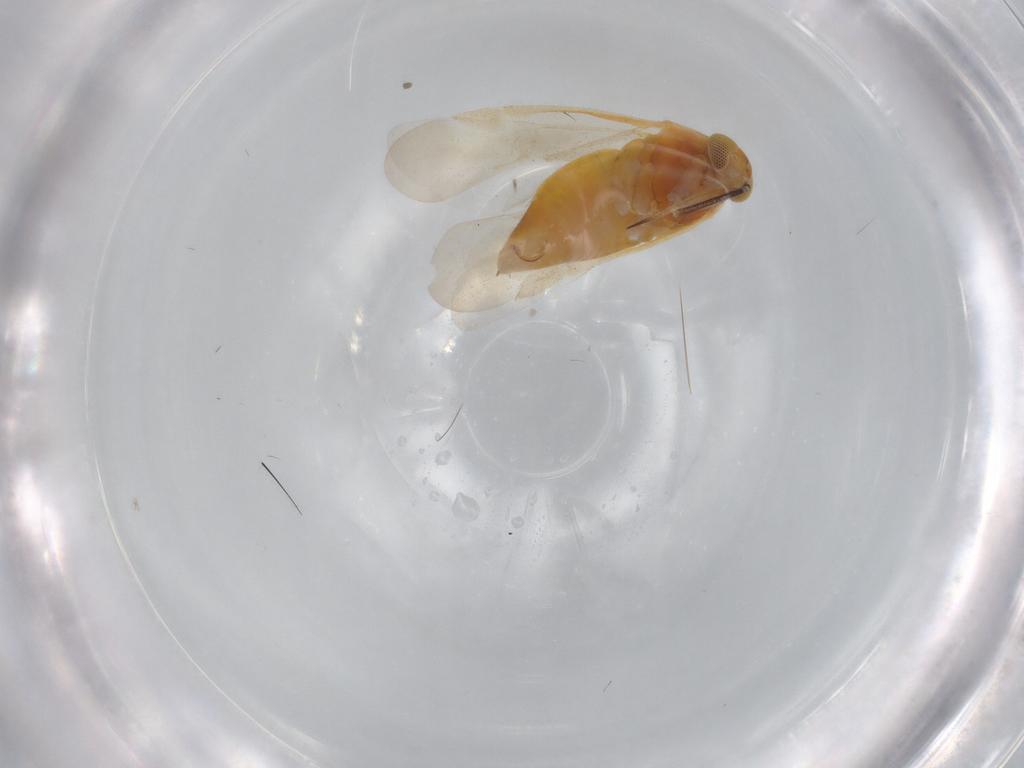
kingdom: Animalia
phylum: Arthropoda
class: Insecta
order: Hemiptera
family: Miridae
